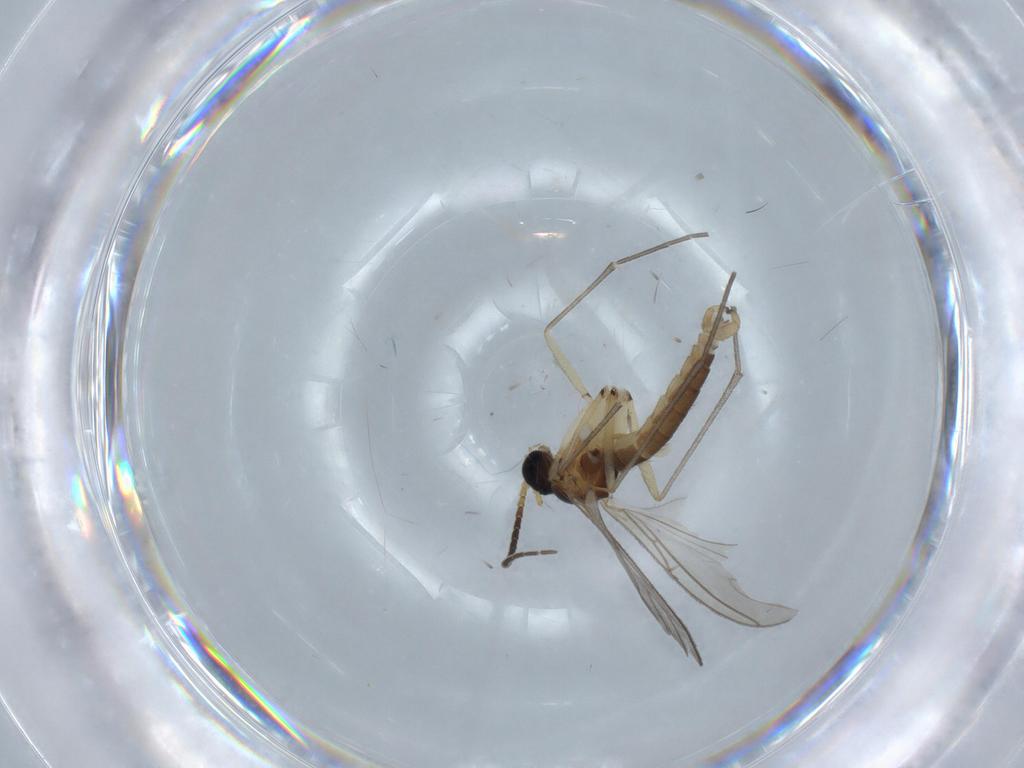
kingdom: Animalia
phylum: Arthropoda
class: Insecta
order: Diptera
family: Sciaridae
